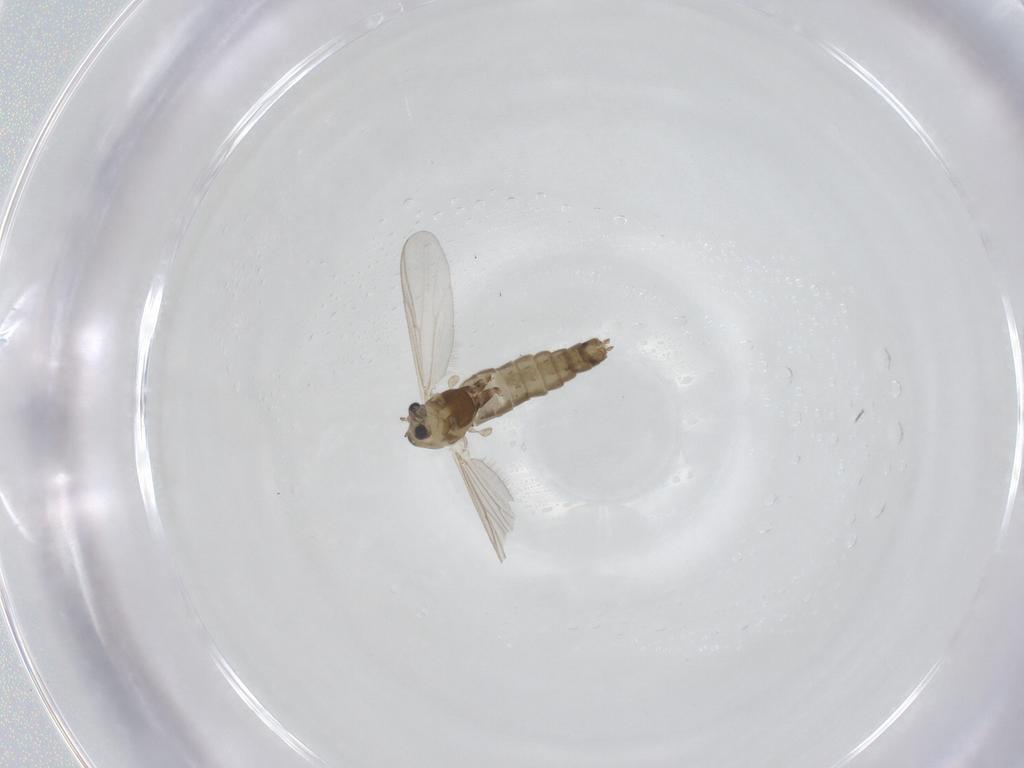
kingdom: Animalia
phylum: Arthropoda
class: Insecta
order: Diptera
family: Chironomidae
